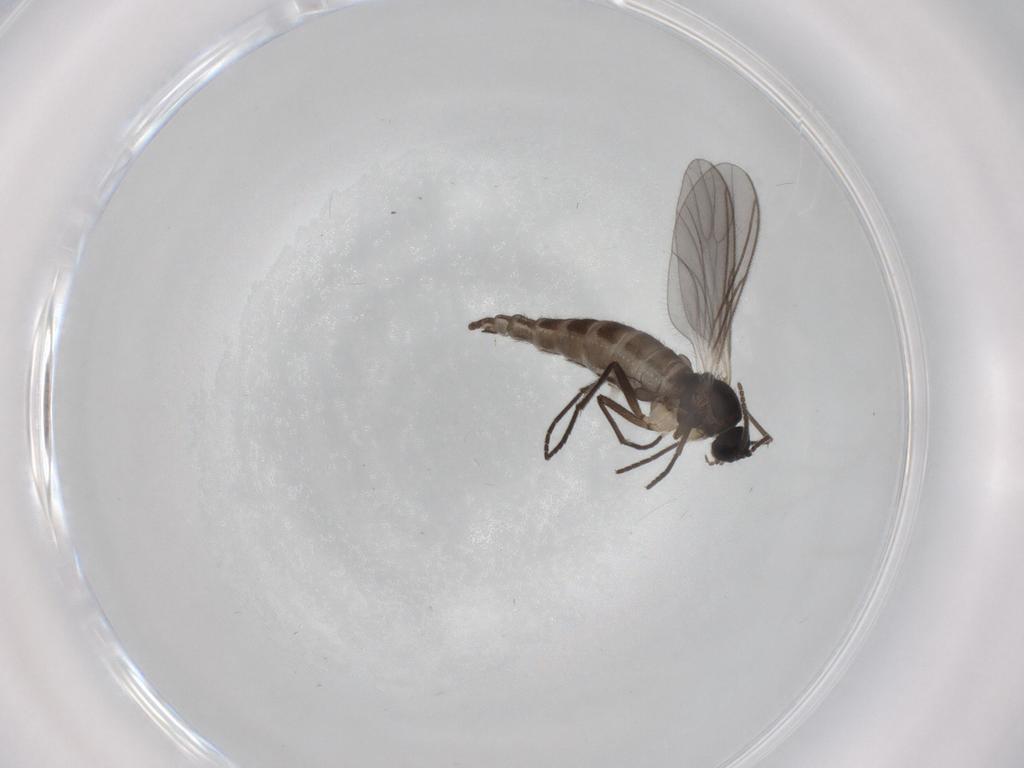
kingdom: Animalia
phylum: Arthropoda
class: Insecta
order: Diptera
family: Sciaridae
